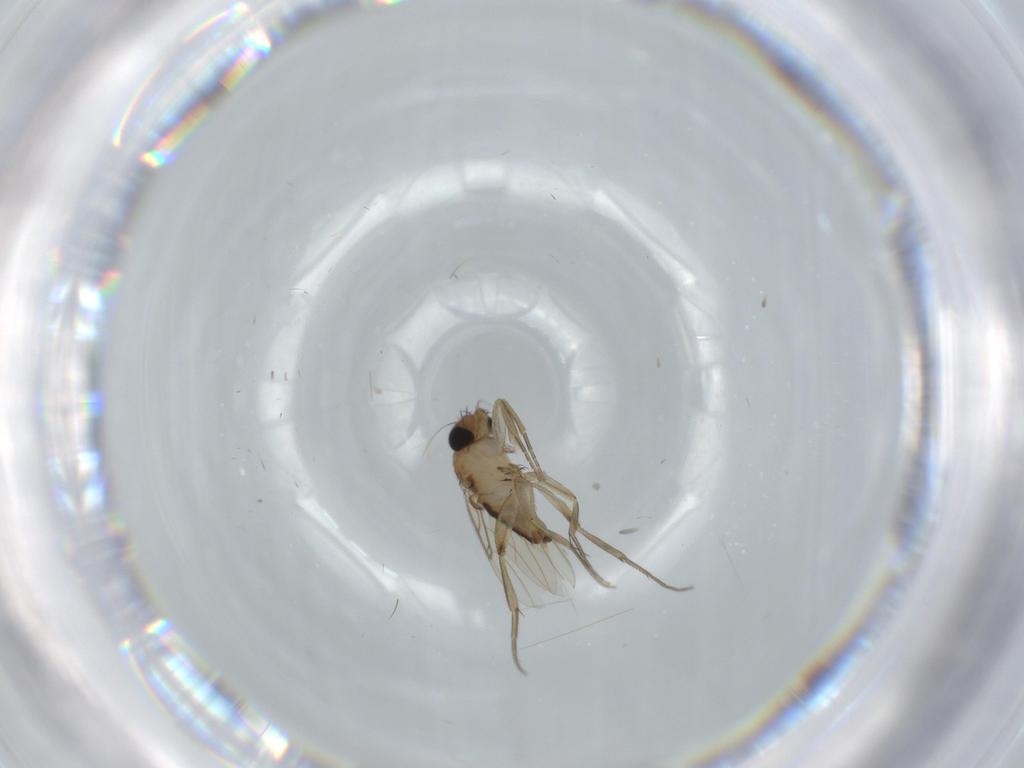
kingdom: Animalia
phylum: Arthropoda
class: Insecta
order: Diptera
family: Phoridae
